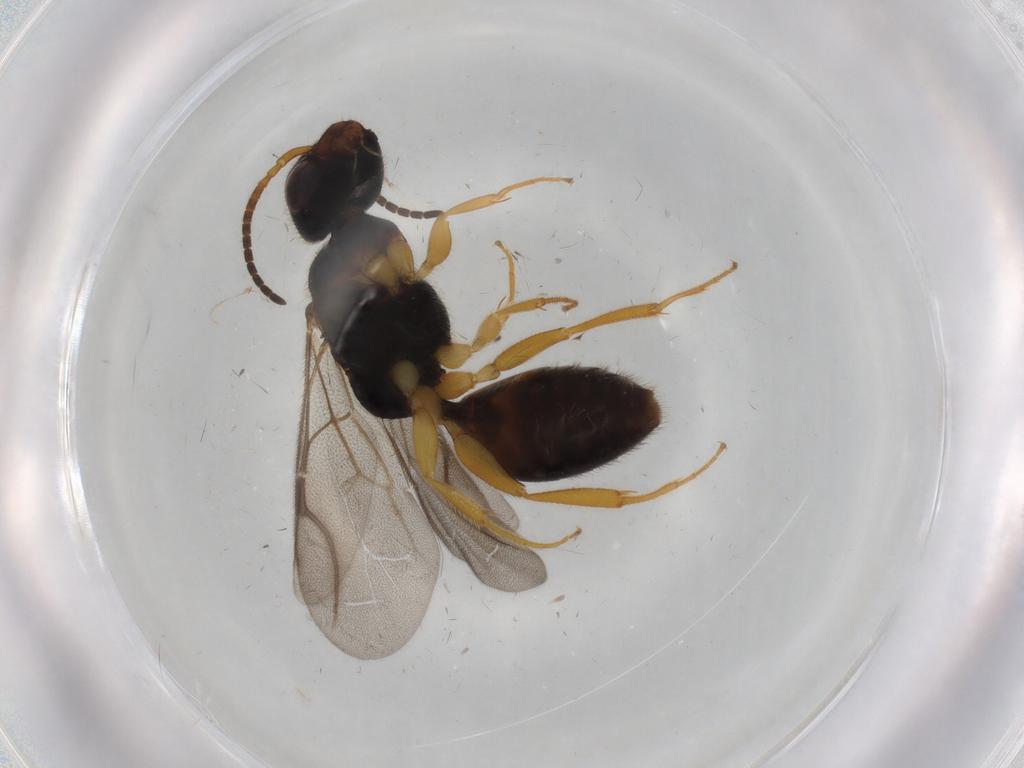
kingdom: Animalia
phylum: Arthropoda
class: Insecta
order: Hymenoptera
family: Bethylidae
